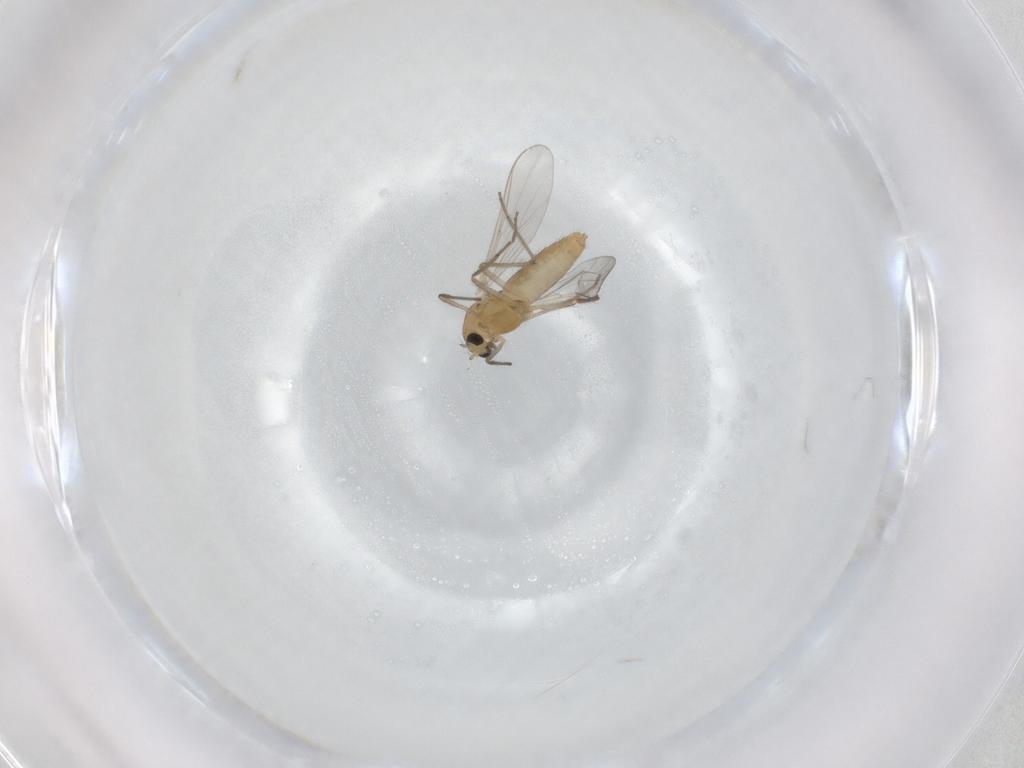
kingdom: Animalia
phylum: Arthropoda
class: Insecta
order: Diptera
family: Chironomidae
